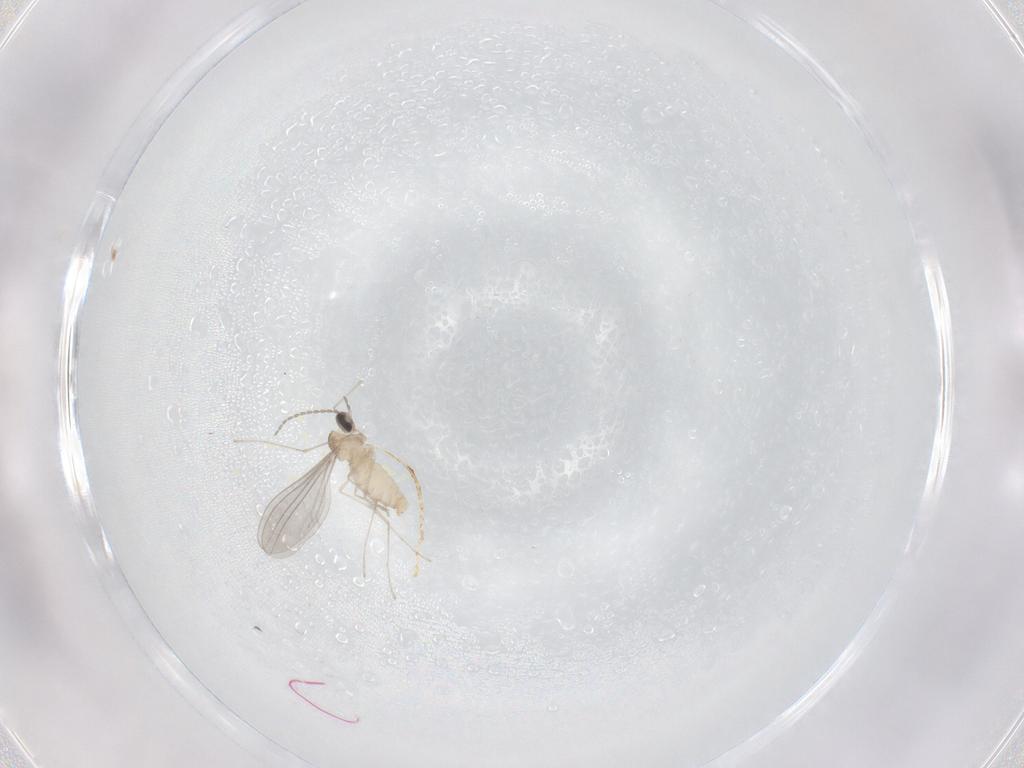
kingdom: Animalia
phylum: Arthropoda
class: Insecta
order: Diptera
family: Cecidomyiidae
